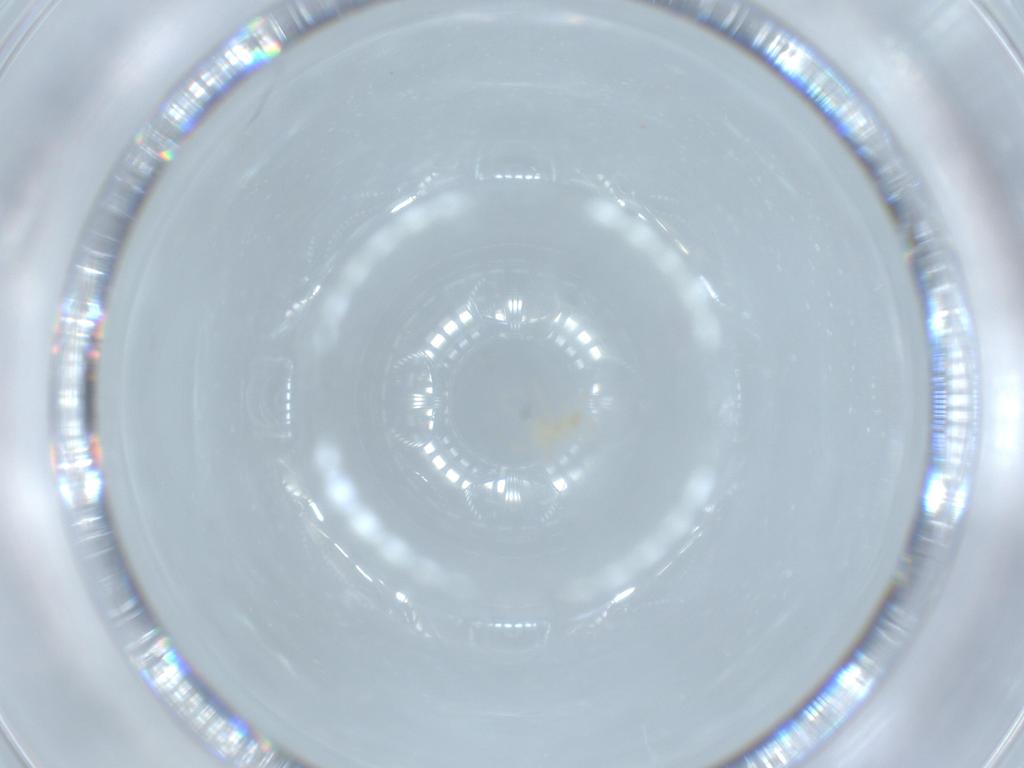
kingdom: Animalia
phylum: Arthropoda
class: Arachnida
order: Trombidiformes
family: Erythraeidae
